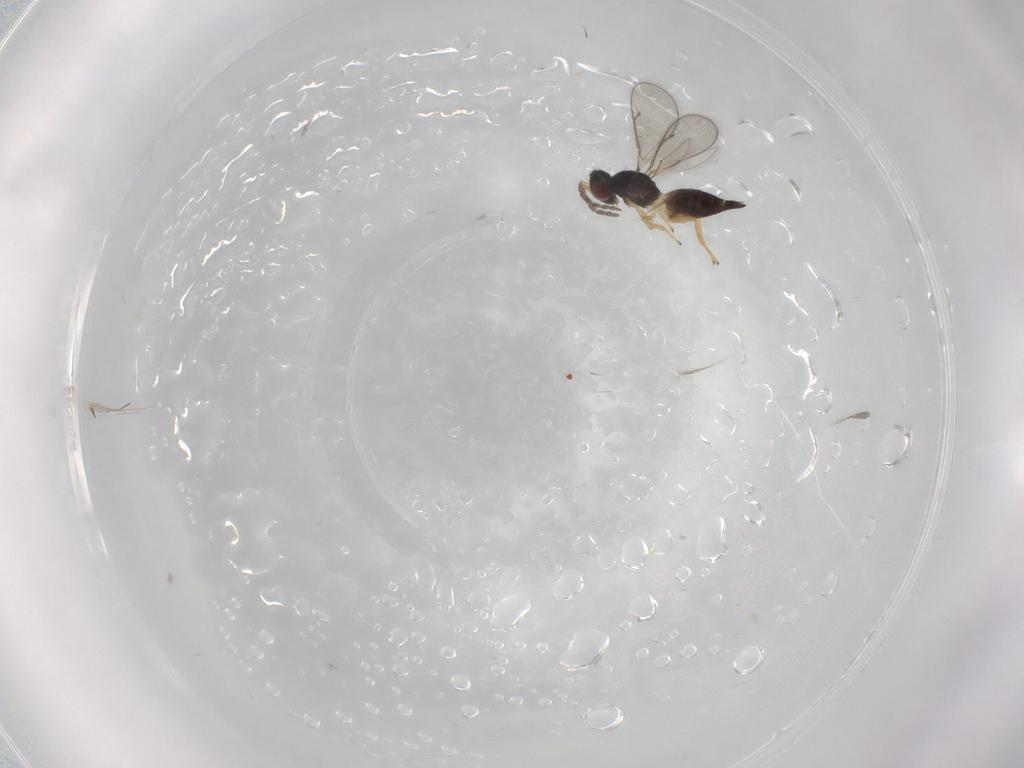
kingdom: Animalia
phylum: Arthropoda
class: Insecta
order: Hymenoptera
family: Eulophidae
